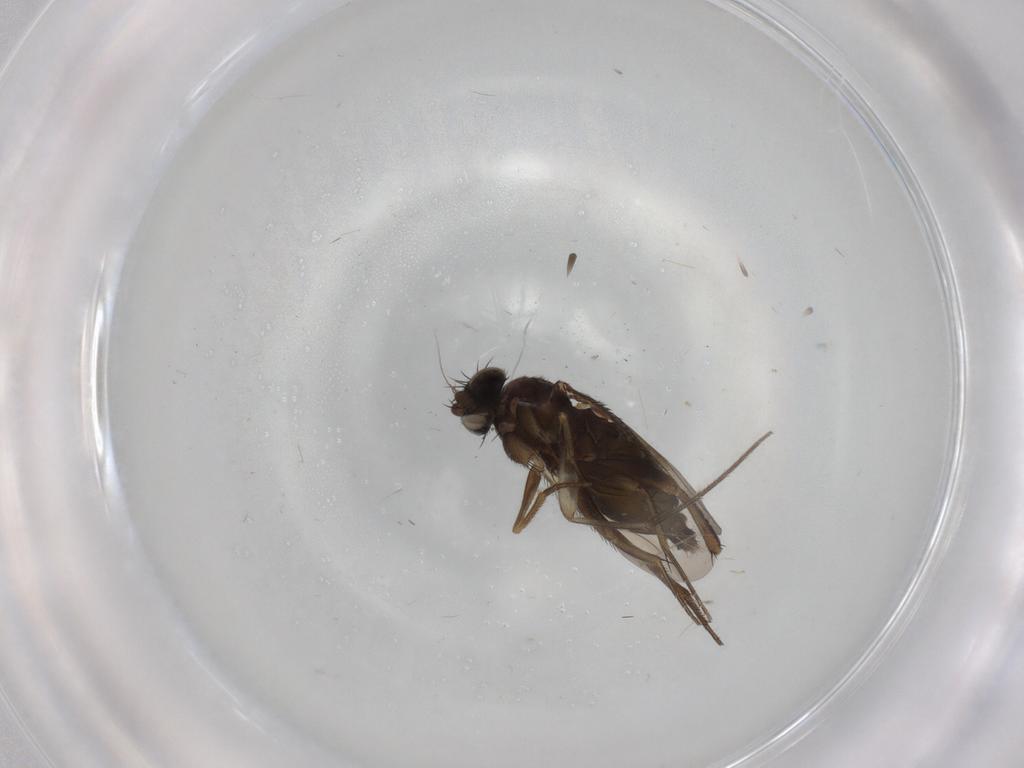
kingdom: Animalia
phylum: Arthropoda
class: Insecta
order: Diptera
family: Phoridae
